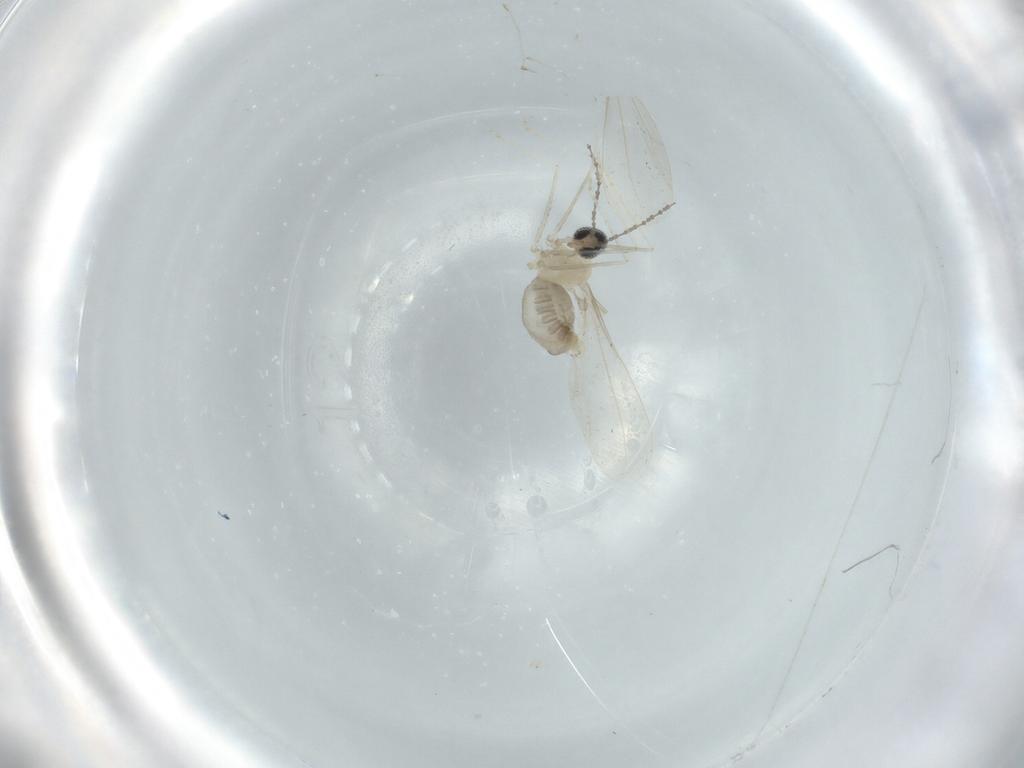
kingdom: Animalia
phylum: Arthropoda
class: Insecta
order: Diptera
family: Cecidomyiidae
